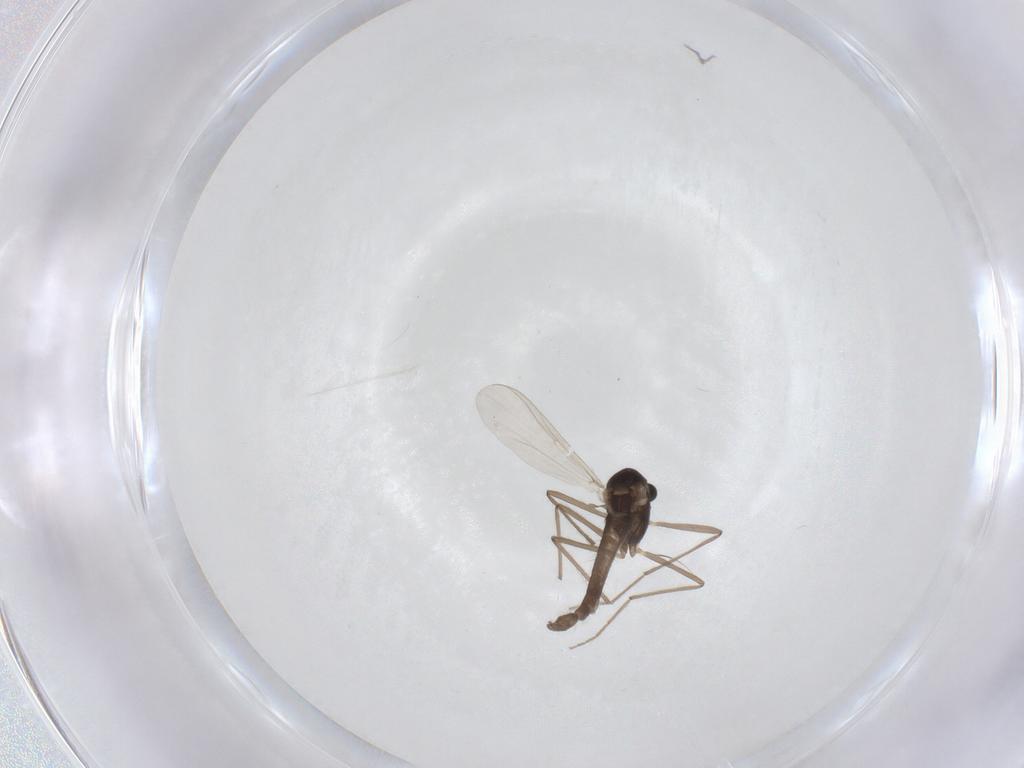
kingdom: Animalia
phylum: Arthropoda
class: Insecta
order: Diptera
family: Chironomidae
